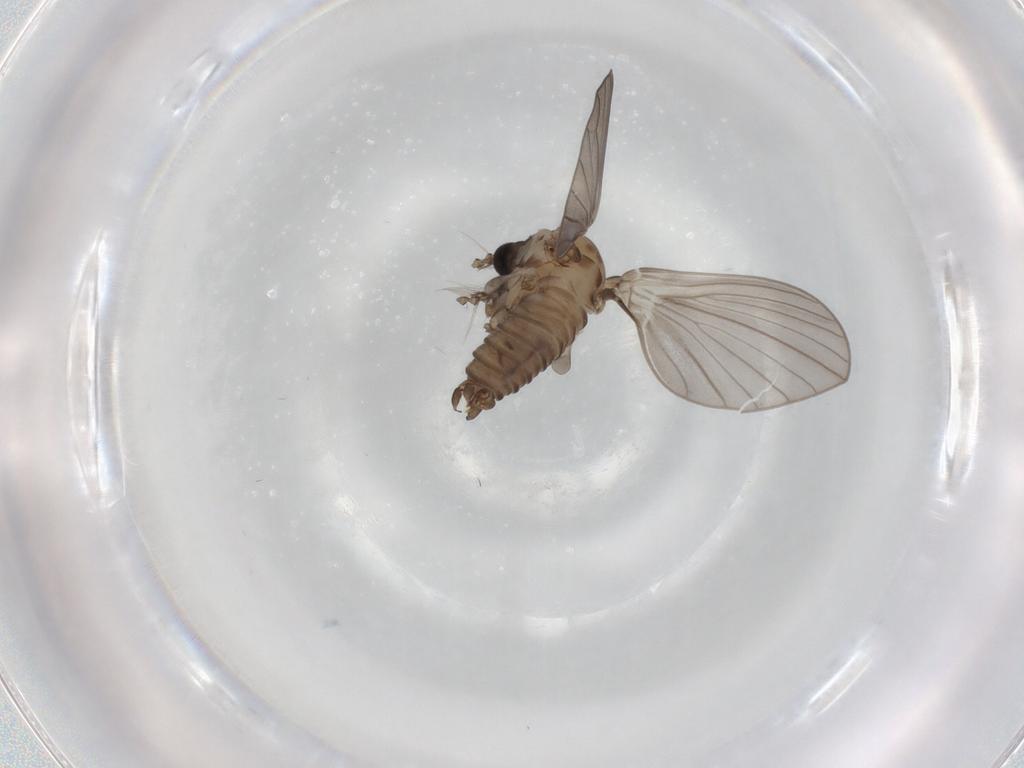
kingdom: Animalia
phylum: Arthropoda
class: Insecta
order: Diptera
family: Psychodidae
